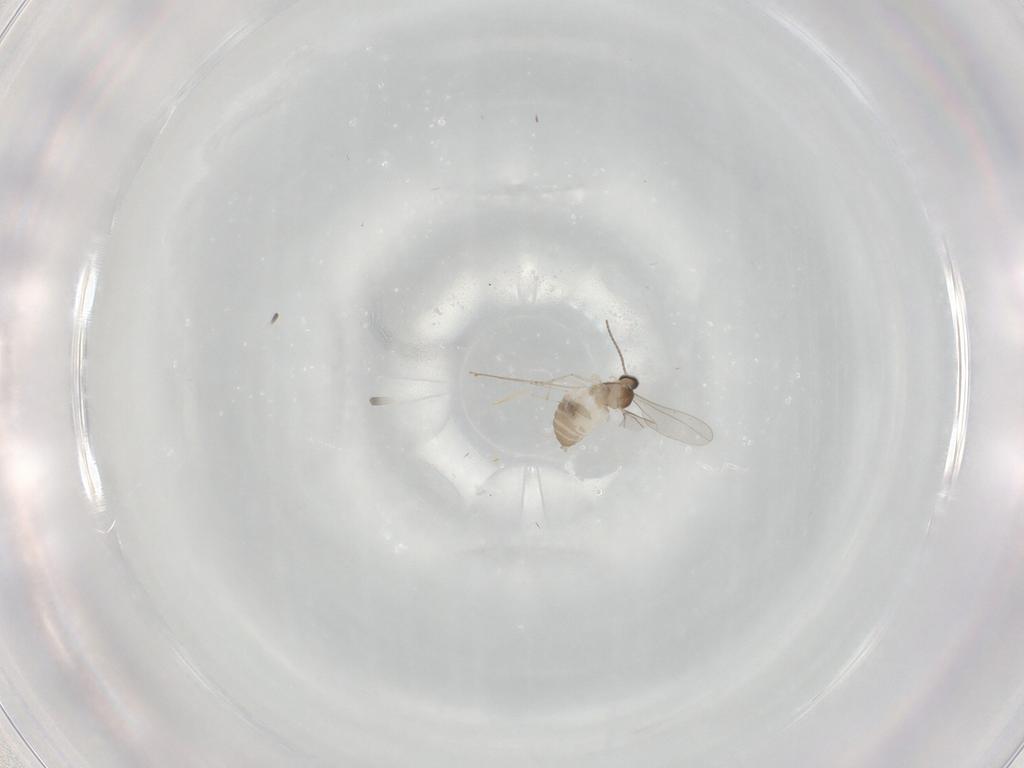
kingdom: Animalia
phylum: Arthropoda
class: Insecta
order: Diptera
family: Cecidomyiidae
